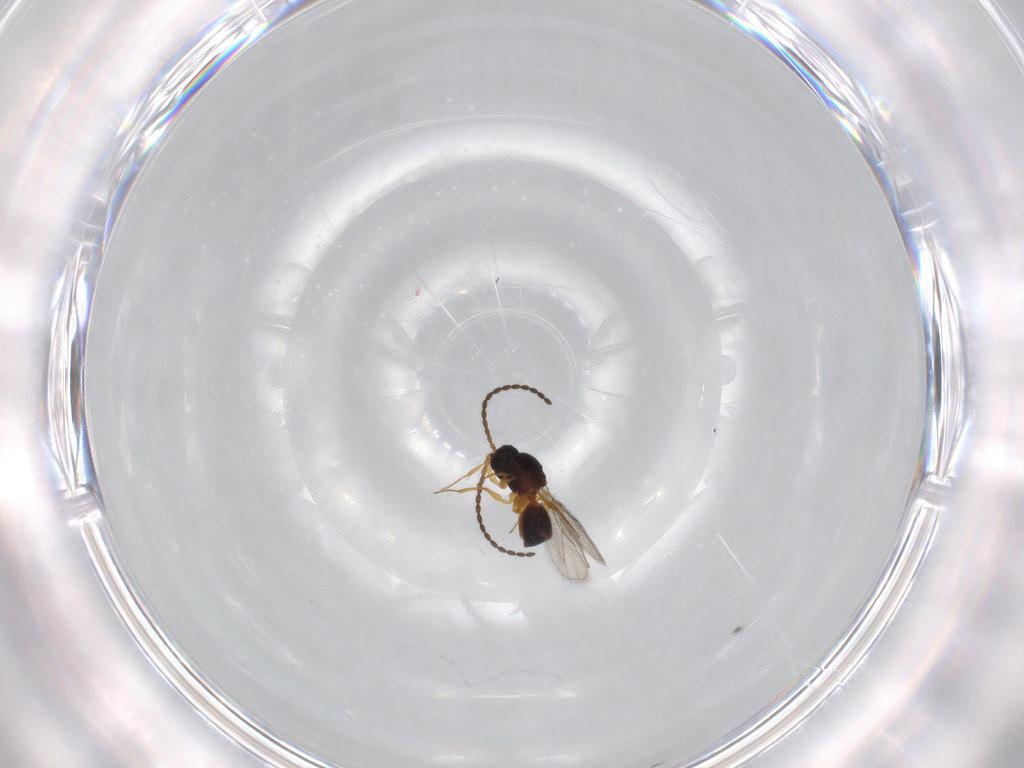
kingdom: Animalia
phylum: Arthropoda
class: Insecta
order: Hymenoptera
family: Figitidae
